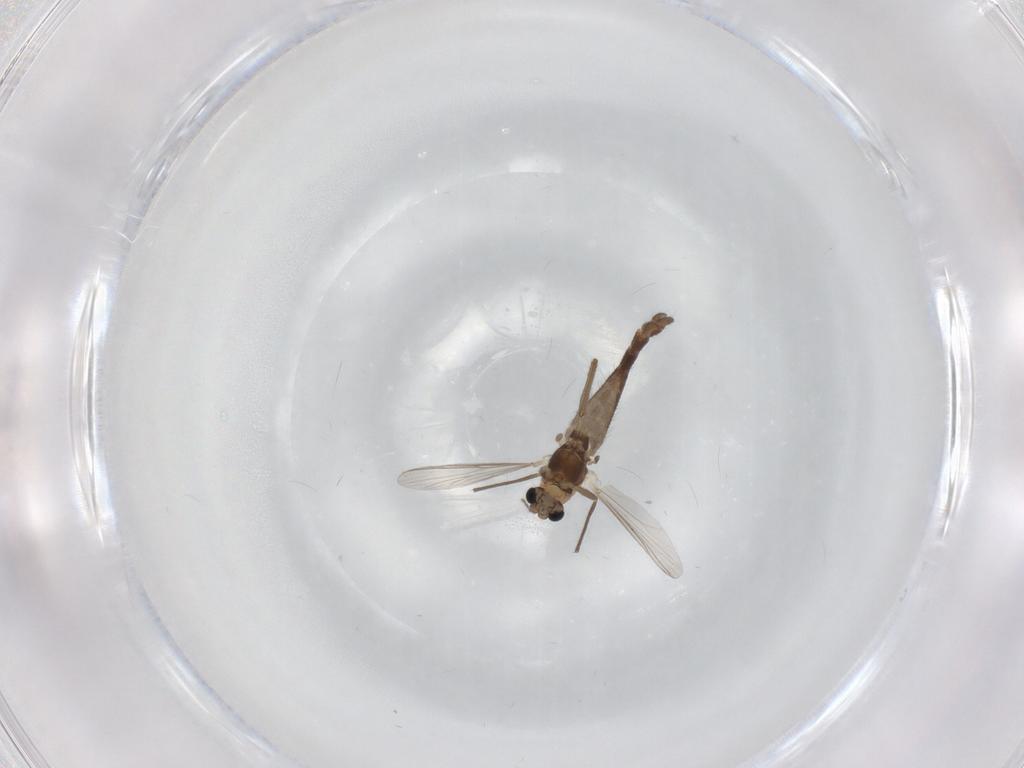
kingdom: Animalia
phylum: Arthropoda
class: Insecta
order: Diptera
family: Chironomidae
